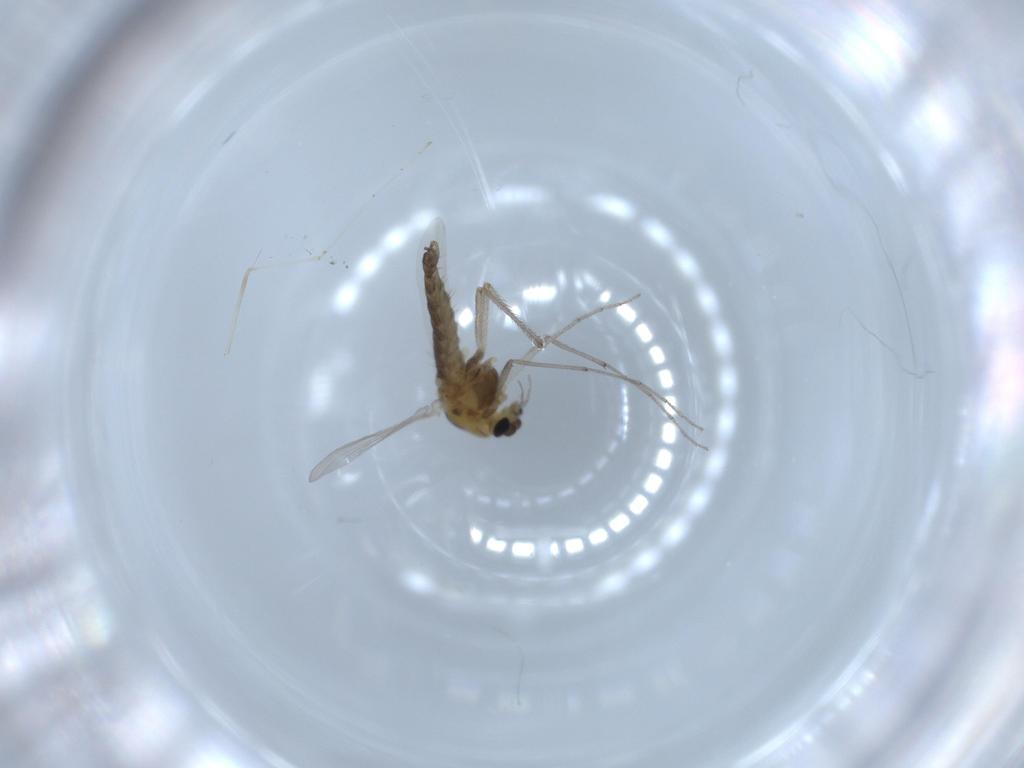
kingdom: Animalia
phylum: Arthropoda
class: Insecta
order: Diptera
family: Chironomidae
